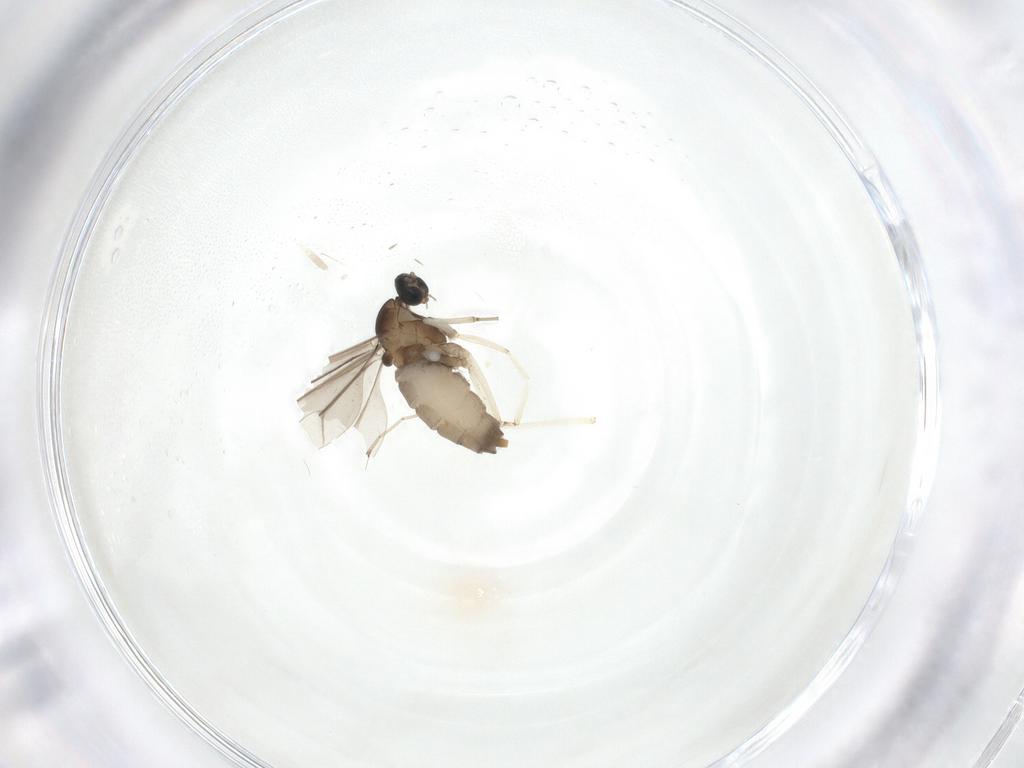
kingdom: Animalia
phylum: Arthropoda
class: Insecta
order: Diptera
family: Cecidomyiidae
